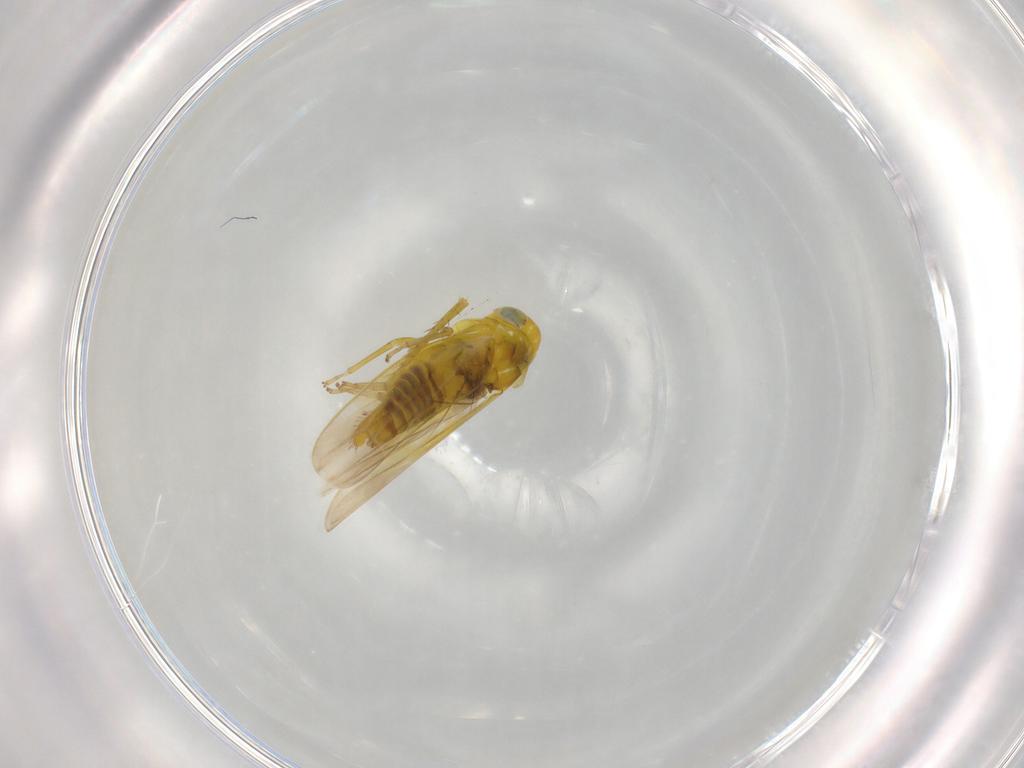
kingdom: Animalia
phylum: Arthropoda
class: Insecta
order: Hemiptera
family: Cicadellidae
